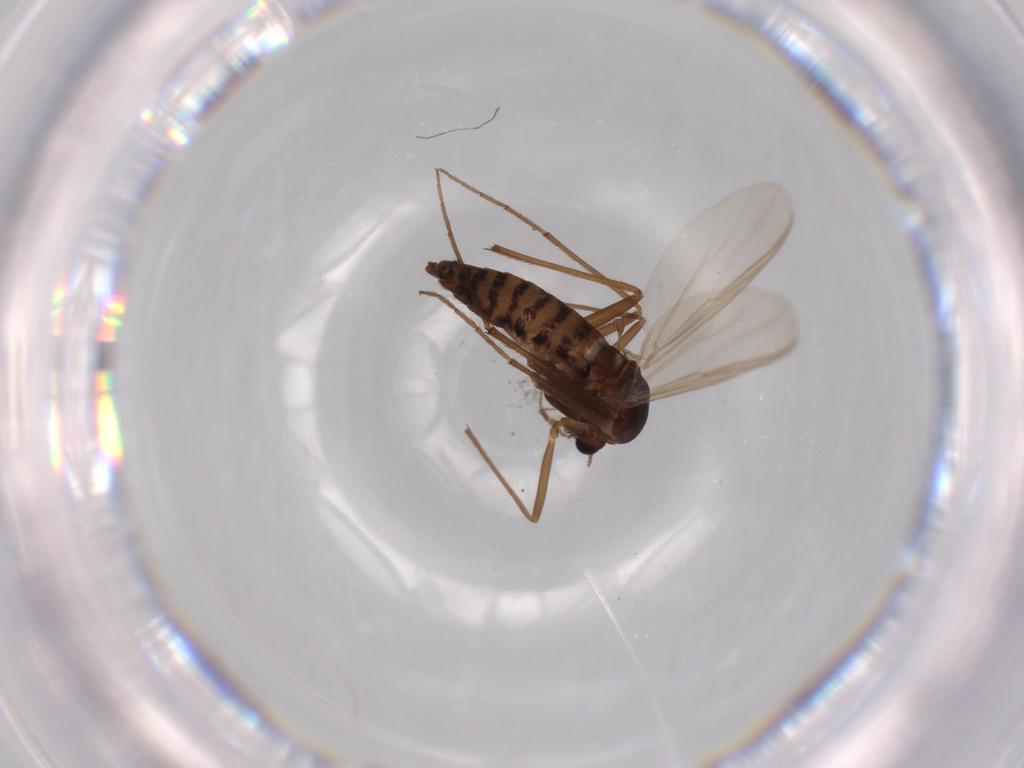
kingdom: Animalia
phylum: Arthropoda
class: Insecta
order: Diptera
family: Chironomidae
